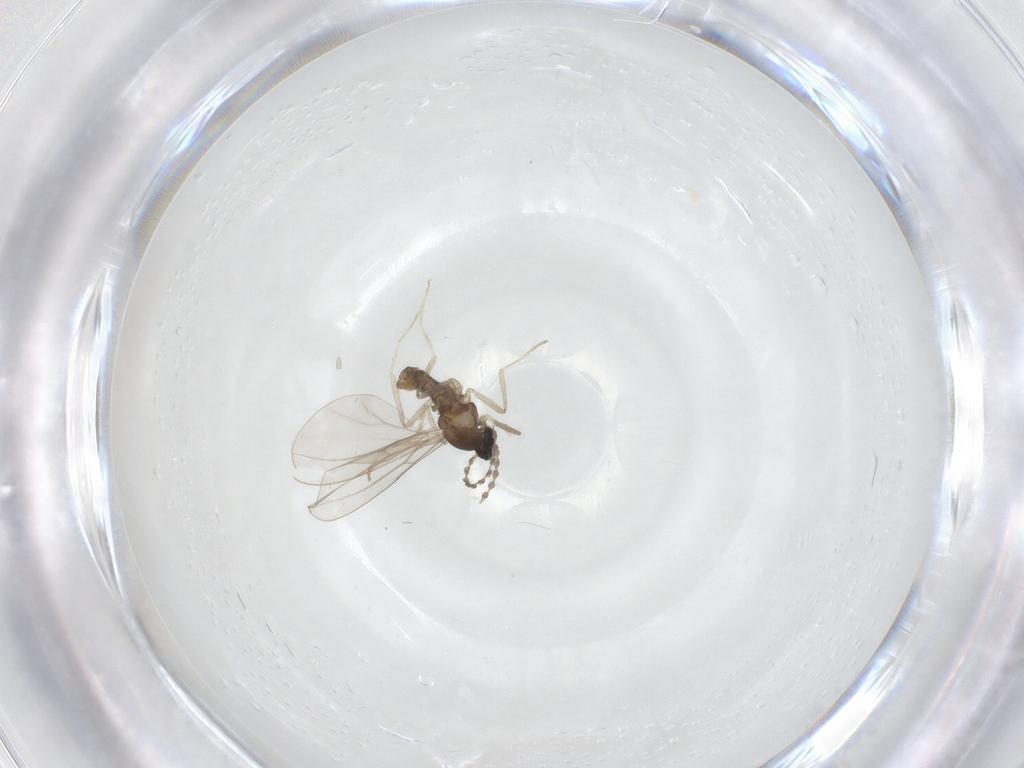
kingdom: Animalia
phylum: Arthropoda
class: Insecta
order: Diptera
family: Cecidomyiidae
